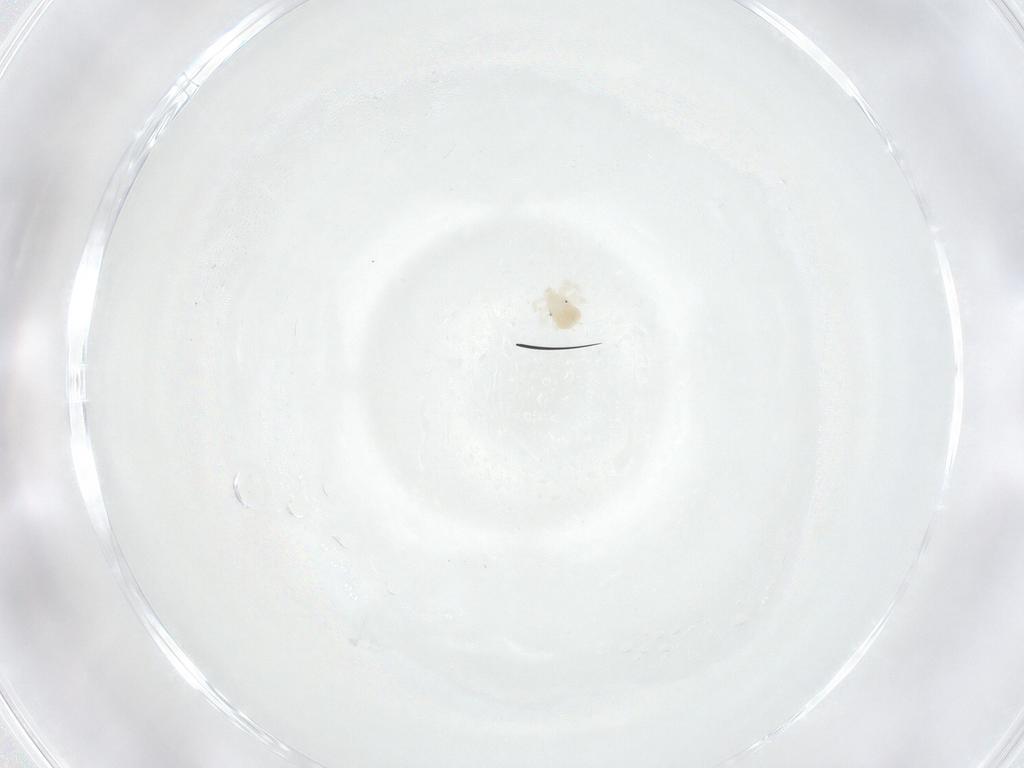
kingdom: Animalia
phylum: Arthropoda
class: Arachnida
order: Trombidiformes
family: Anystidae
